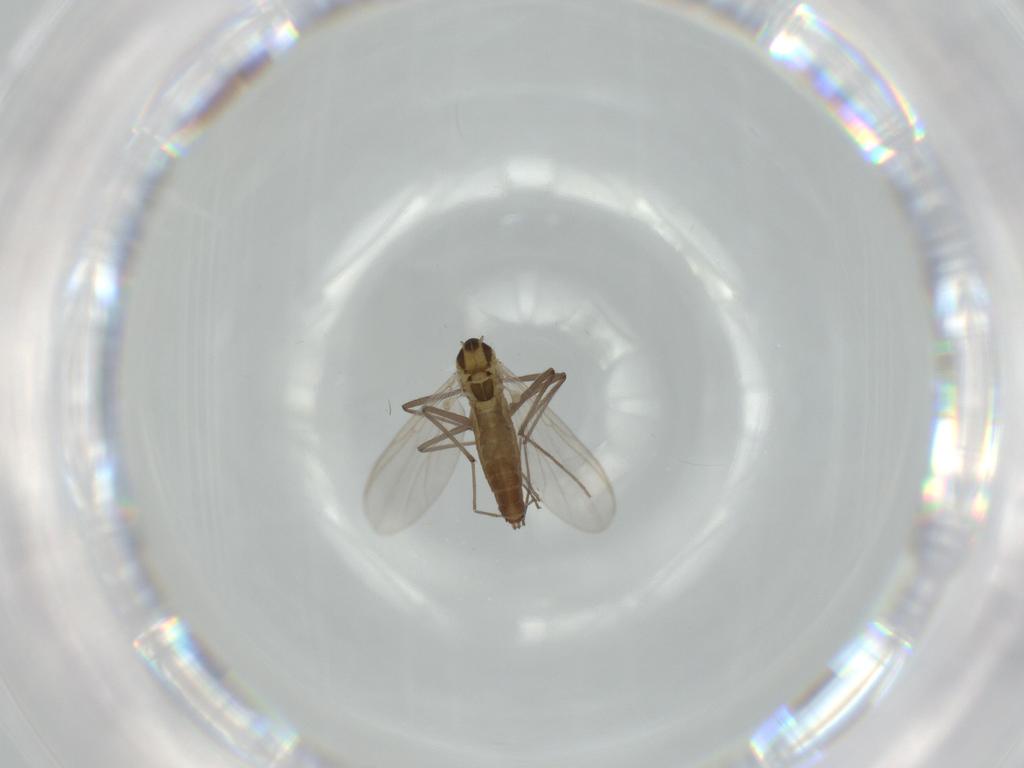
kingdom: Animalia
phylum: Arthropoda
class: Insecta
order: Diptera
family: Chironomidae
